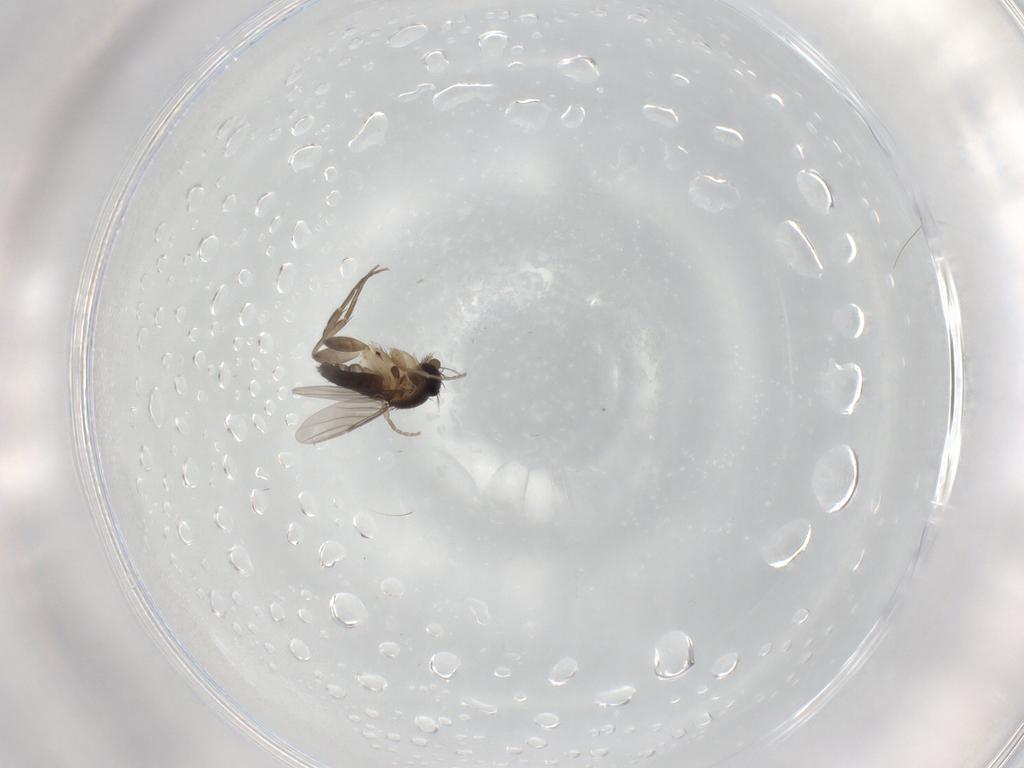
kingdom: Animalia
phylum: Arthropoda
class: Insecta
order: Diptera
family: Phoridae
